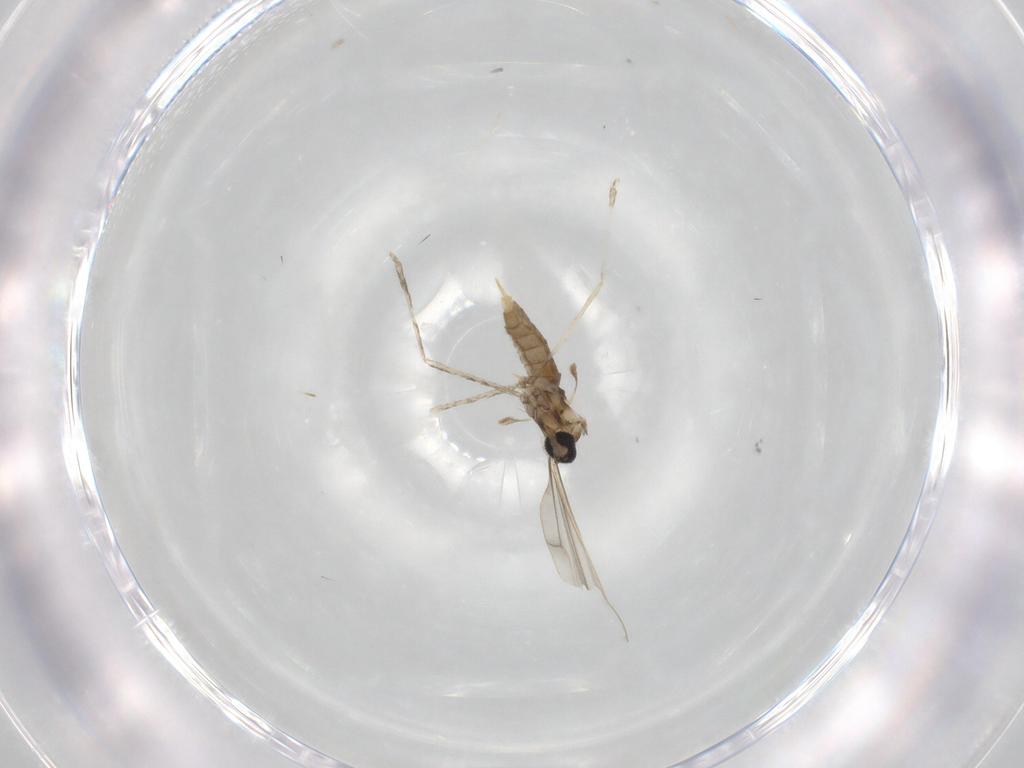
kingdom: Animalia
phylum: Arthropoda
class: Insecta
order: Diptera
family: Cecidomyiidae
